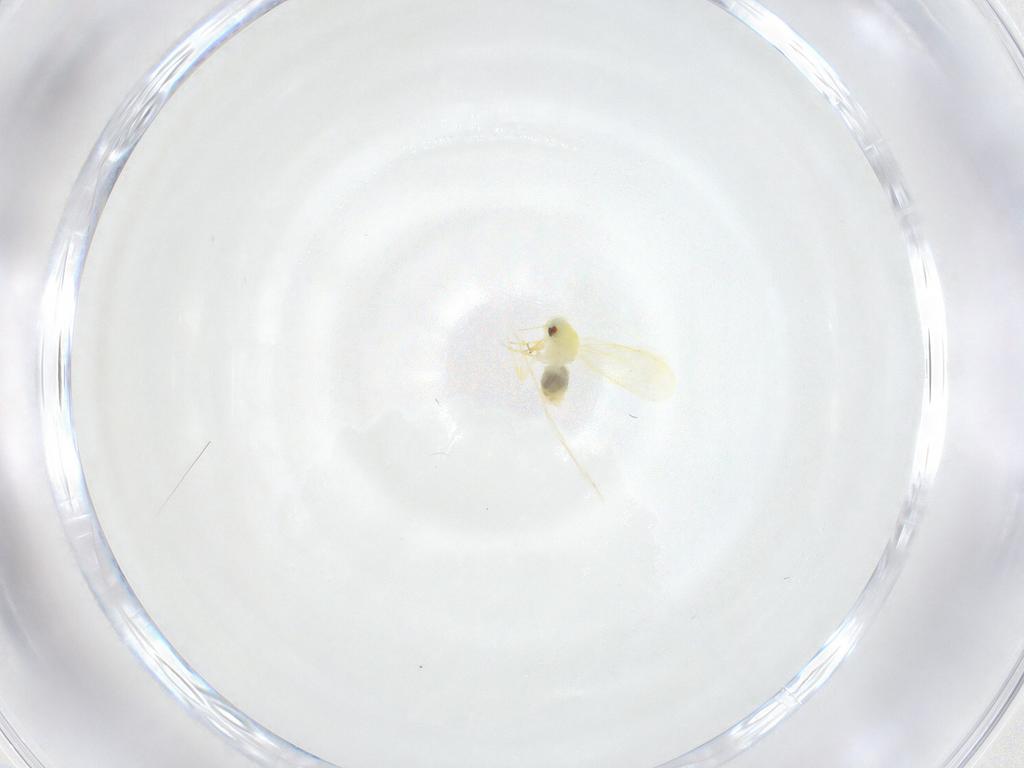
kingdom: Animalia
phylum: Arthropoda
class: Insecta
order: Hemiptera
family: Aleyrodidae
